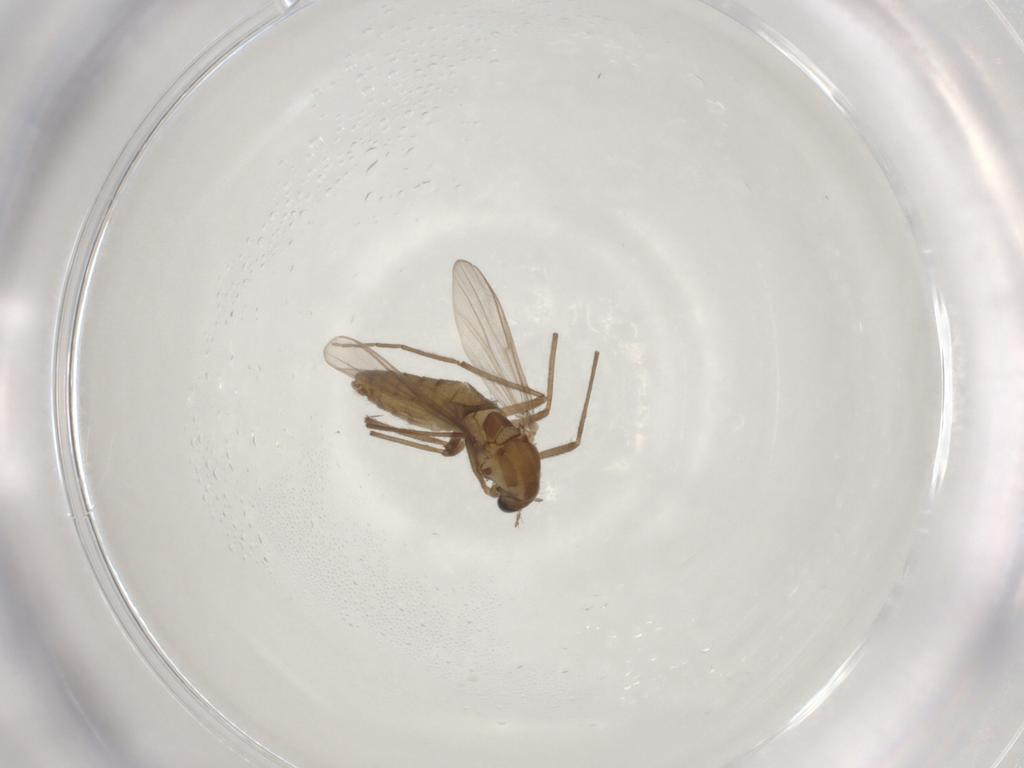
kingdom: Animalia
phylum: Arthropoda
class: Insecta
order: Diptera
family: Chironomidae
